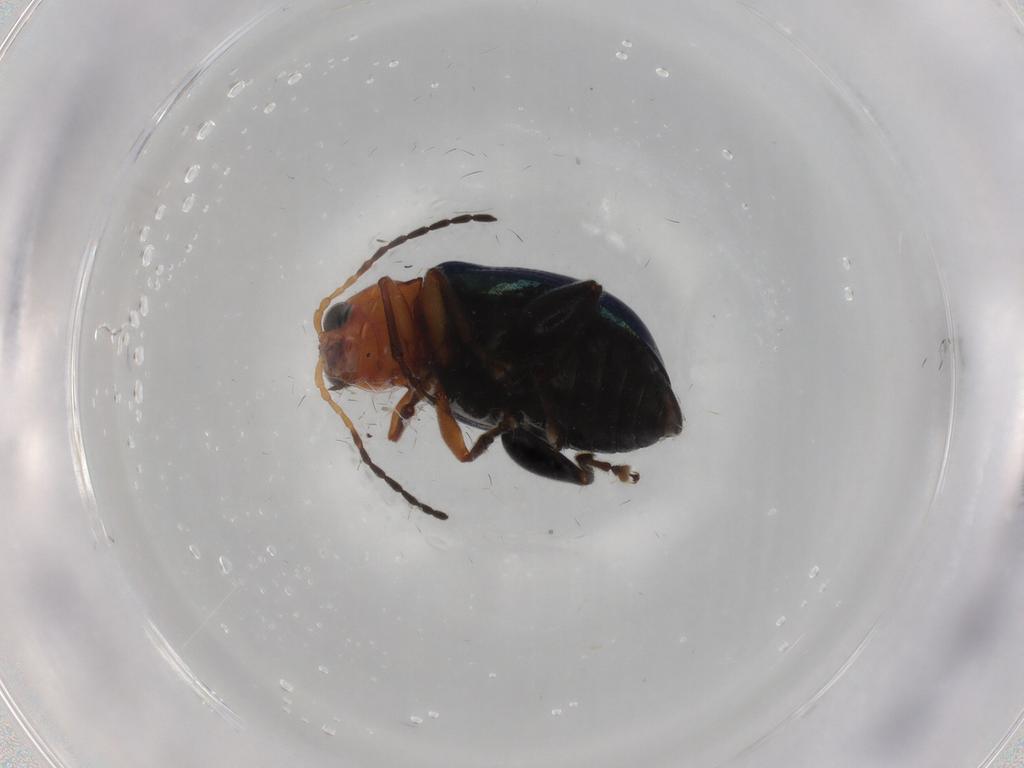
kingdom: Animalia
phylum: Arthropoda
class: Insecta
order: Coleoptera
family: Chrysomelidae
